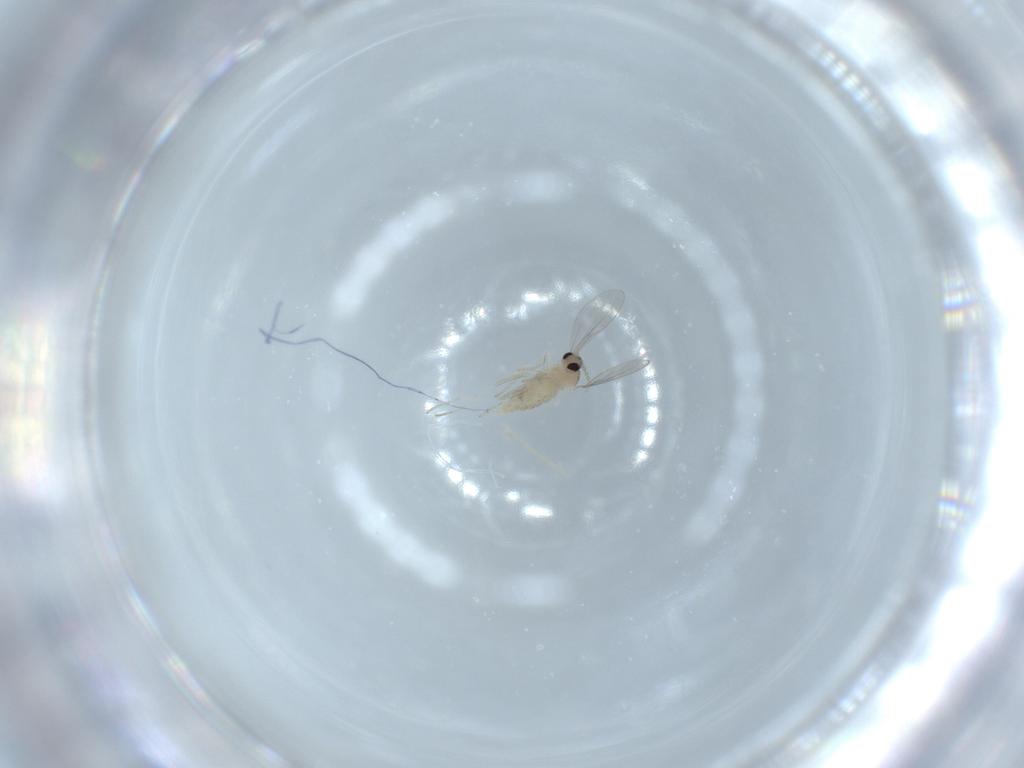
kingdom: Animalia
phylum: Arthropoda
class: Insecta
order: Diptera
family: Cecidomyiidae
